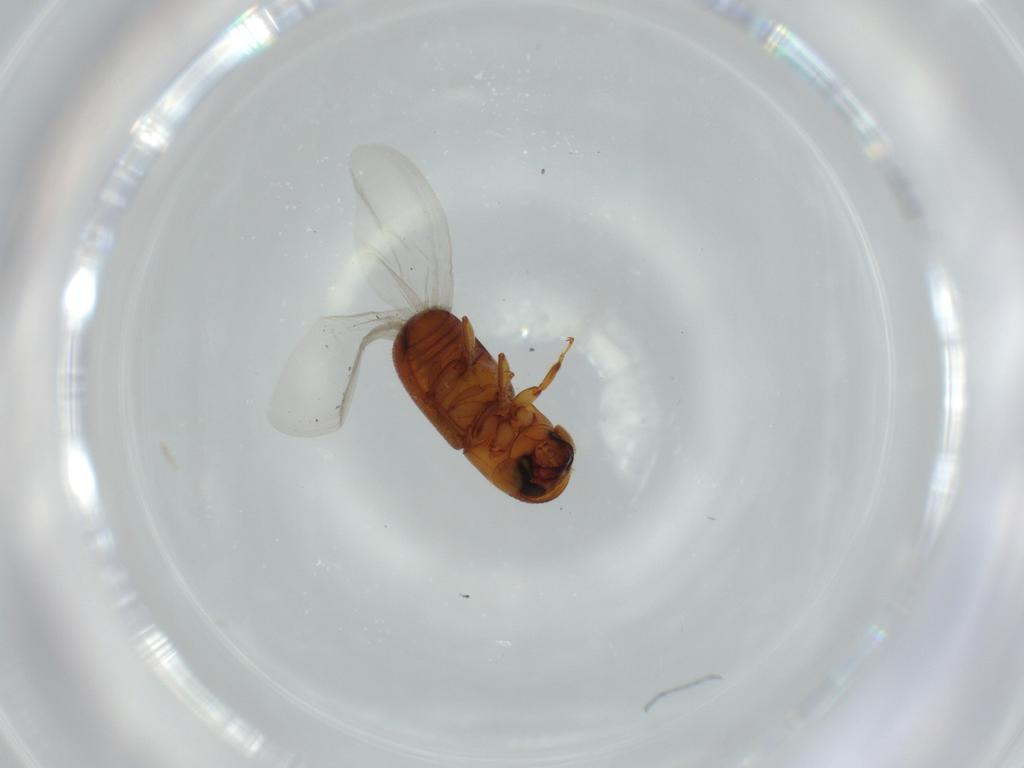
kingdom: Animalia
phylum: Arthropoda
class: Insecta
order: Coleoptera
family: Curculionidae
